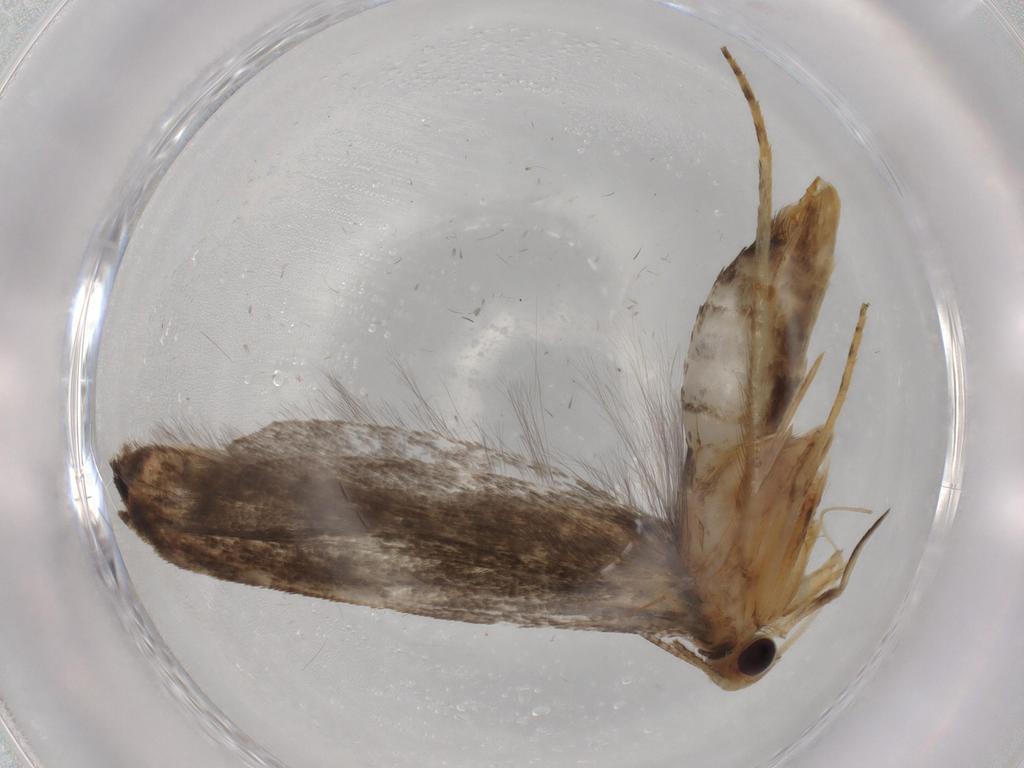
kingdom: Animalia
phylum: Arthropoda
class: Insecta
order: Lepidoptera
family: Gelechiidae
